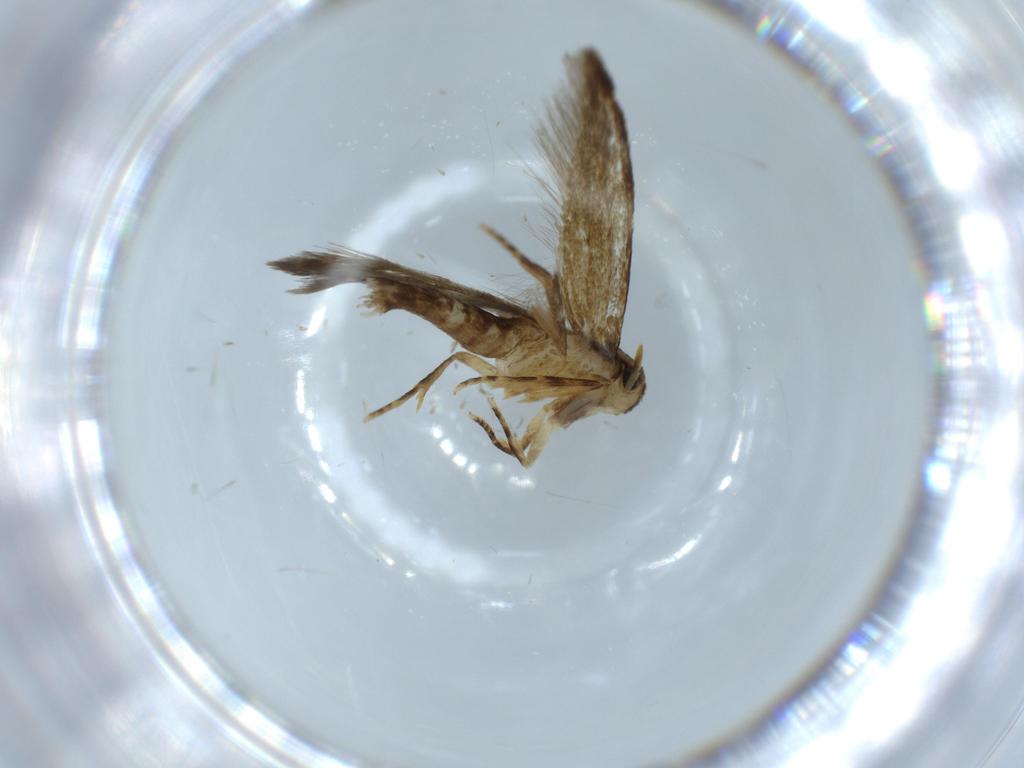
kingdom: Animalia
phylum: Arthropoda
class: Insecta
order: Lepidoptera
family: Tineidae
